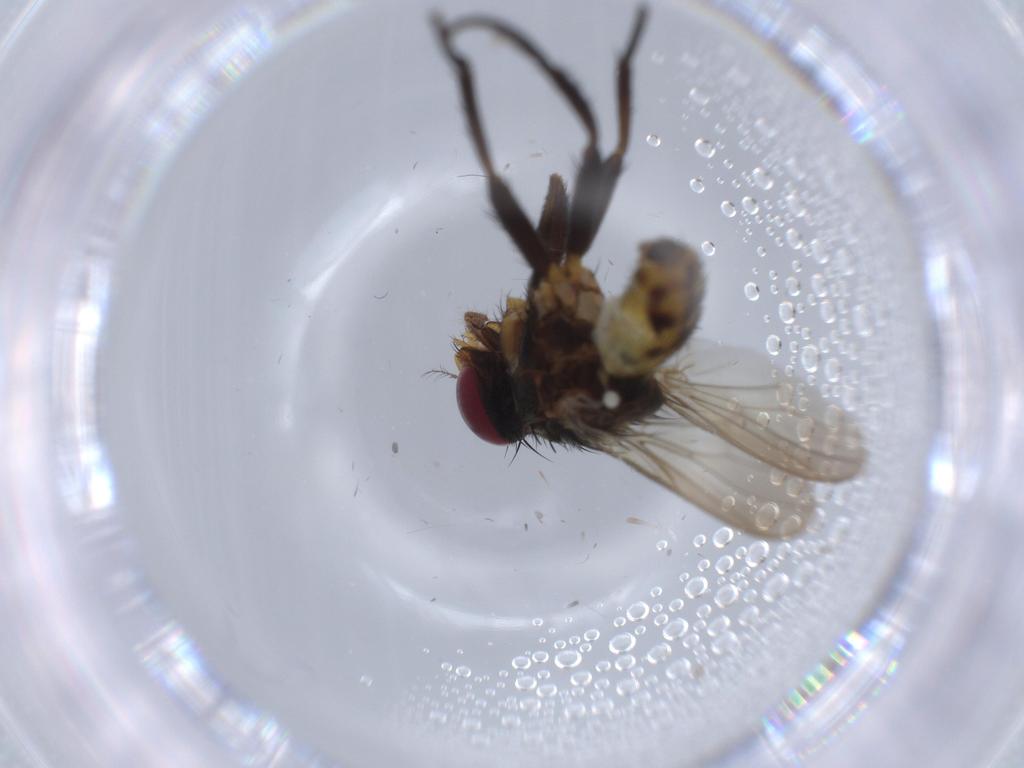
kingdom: Animalia
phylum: Arthropoda
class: Insecta
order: Diptera
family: Anthomyiidae
